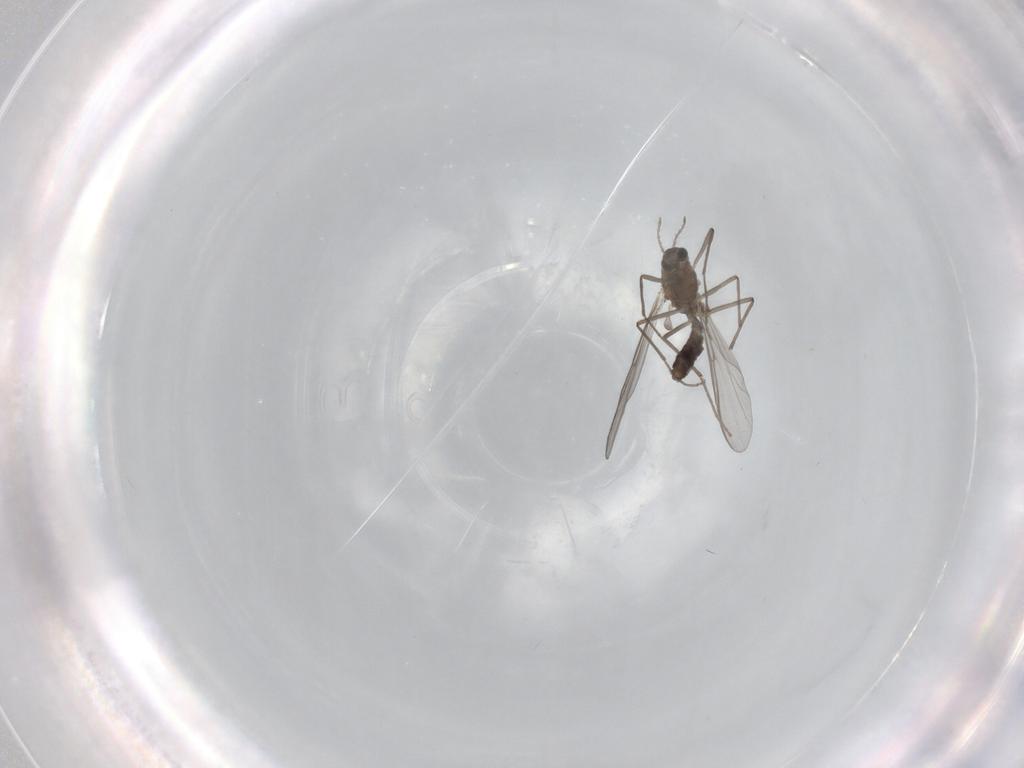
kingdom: Animalia
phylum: Arthropoda
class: Insecta
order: Diptera
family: Chironomidae
